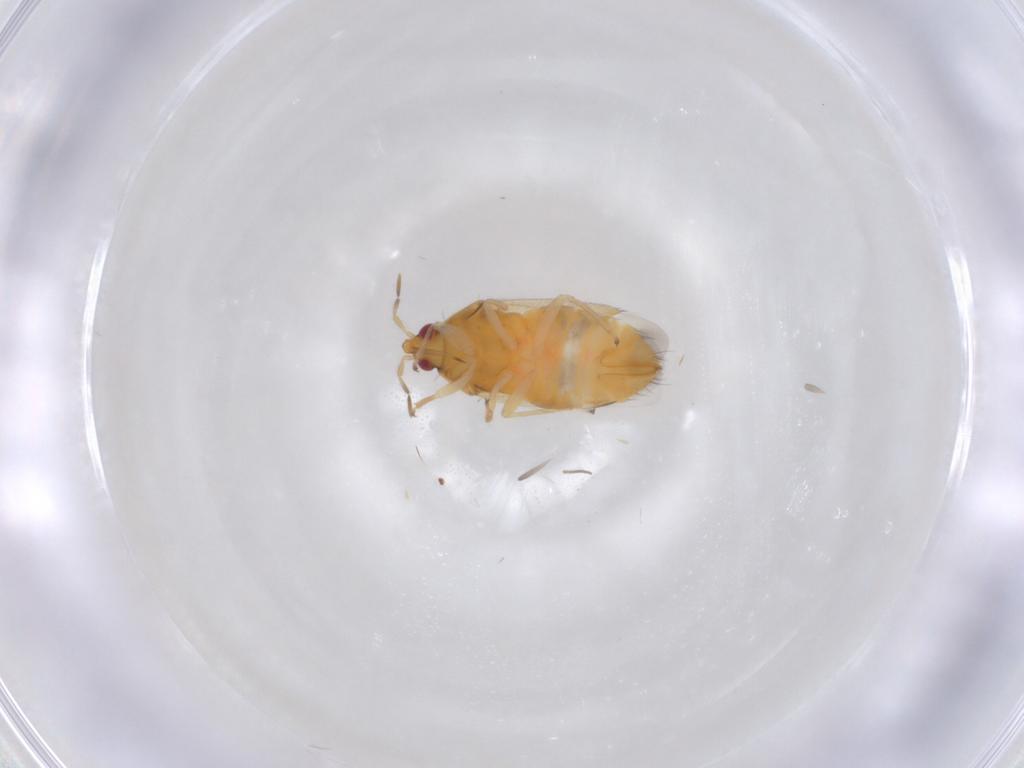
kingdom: Animalia
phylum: Arthropoda
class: Insecta
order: Hemiptera
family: Anthocoridae
